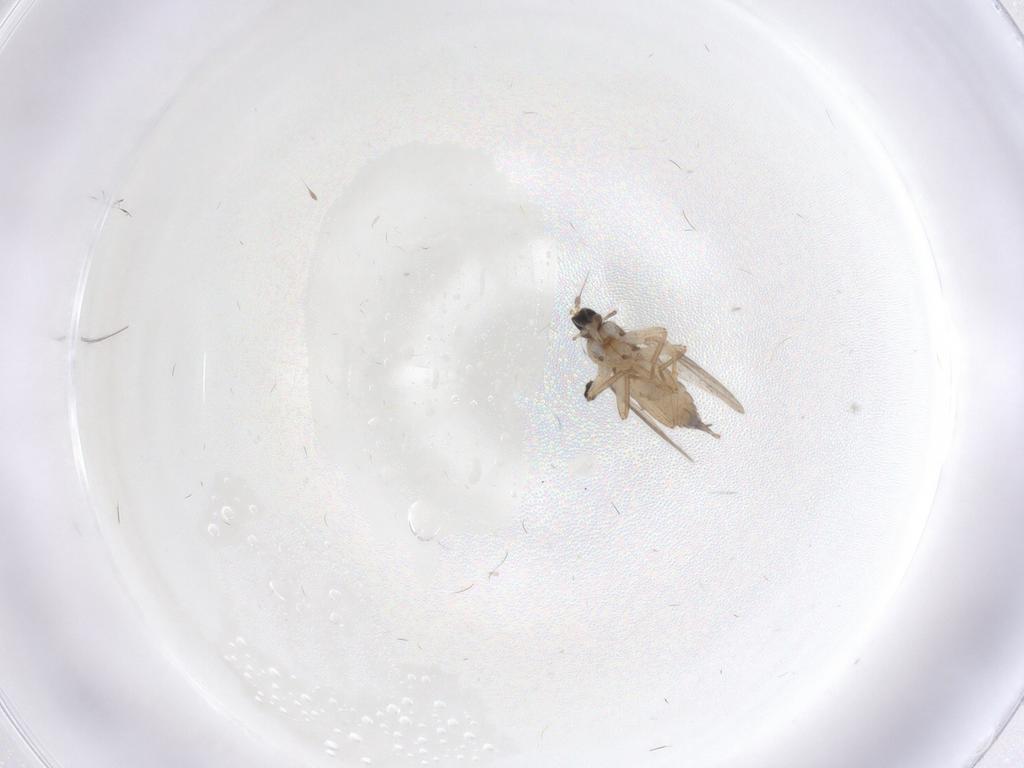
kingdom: Animalia
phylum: Arthropoda
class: Insecta
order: Diptera
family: Hybotidae
